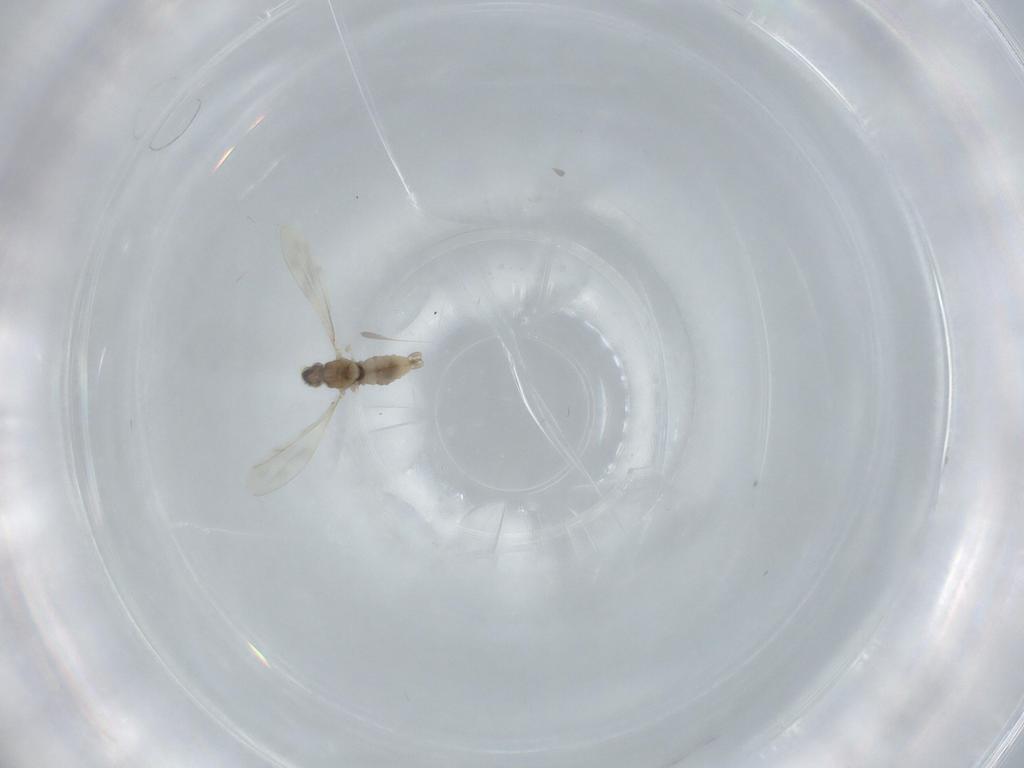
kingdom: Animalia
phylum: Arthropoda
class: Insecta
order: Diptera
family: Cecidomyiidae
